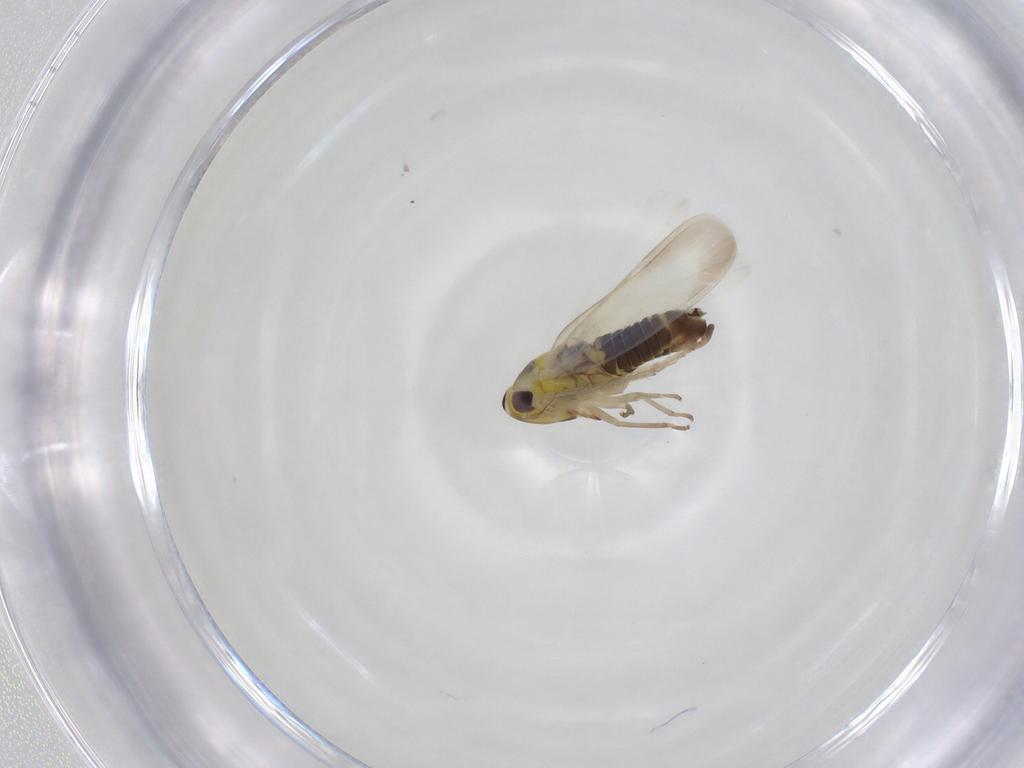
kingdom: Animalia
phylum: Arthropoda
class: Insecta
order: Hemiptera
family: Cicadellidae
